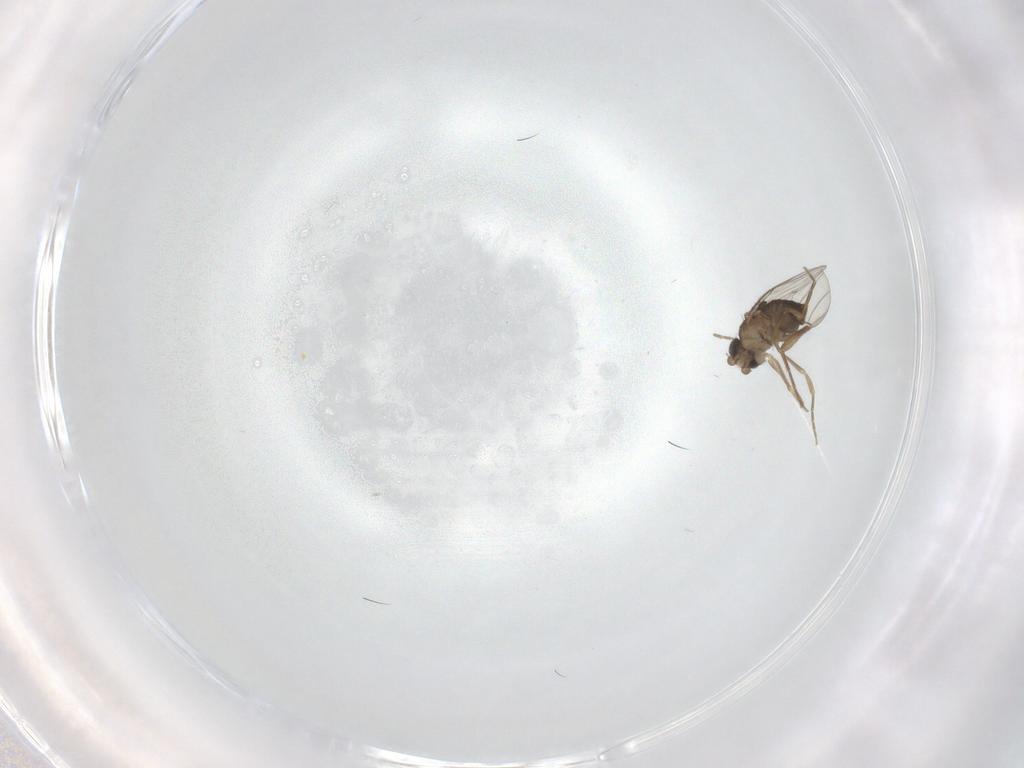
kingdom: Animalia
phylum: Arthropoda
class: Insecta
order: Diptera
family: Phoridae
